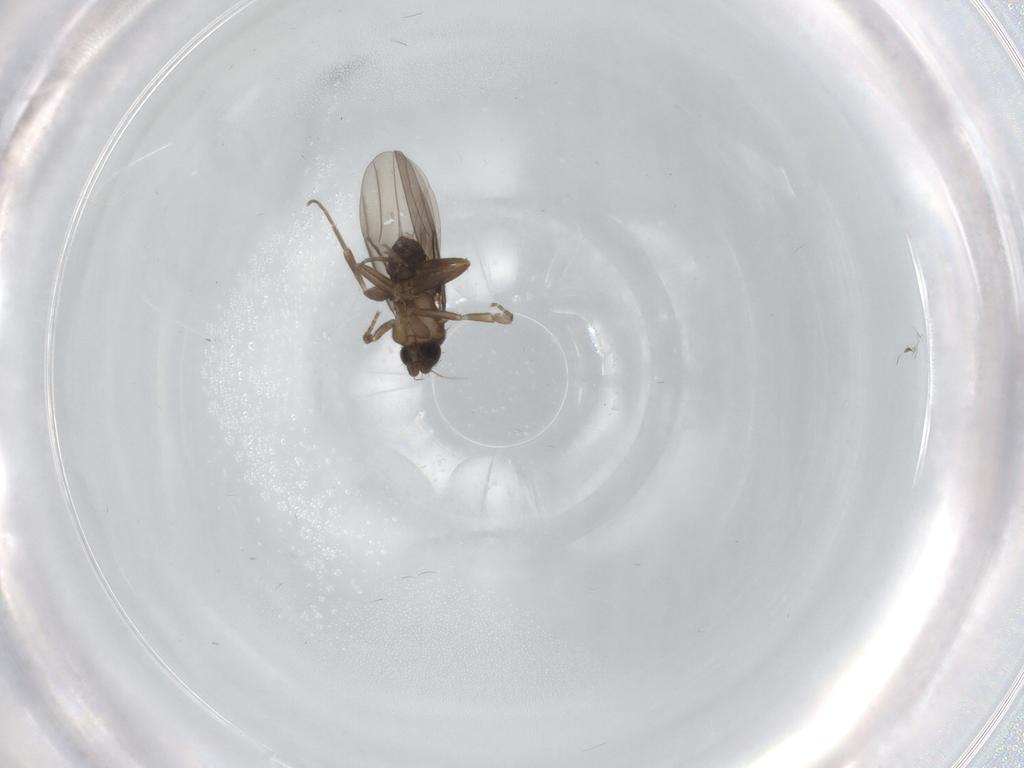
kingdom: Animalia
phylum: Arthropoda
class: Insecta
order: Diptera
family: Phoridae
